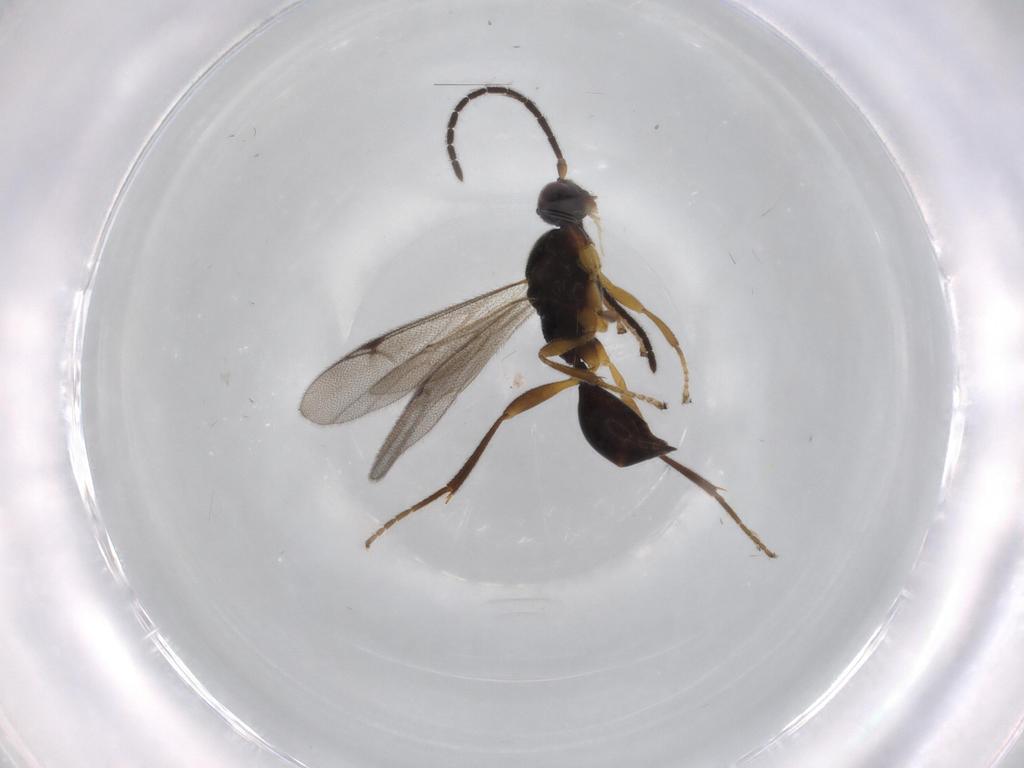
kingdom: Animalia
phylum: Arthropoda
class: Insecta
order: Hymenoptera
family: Proctotrupidae
